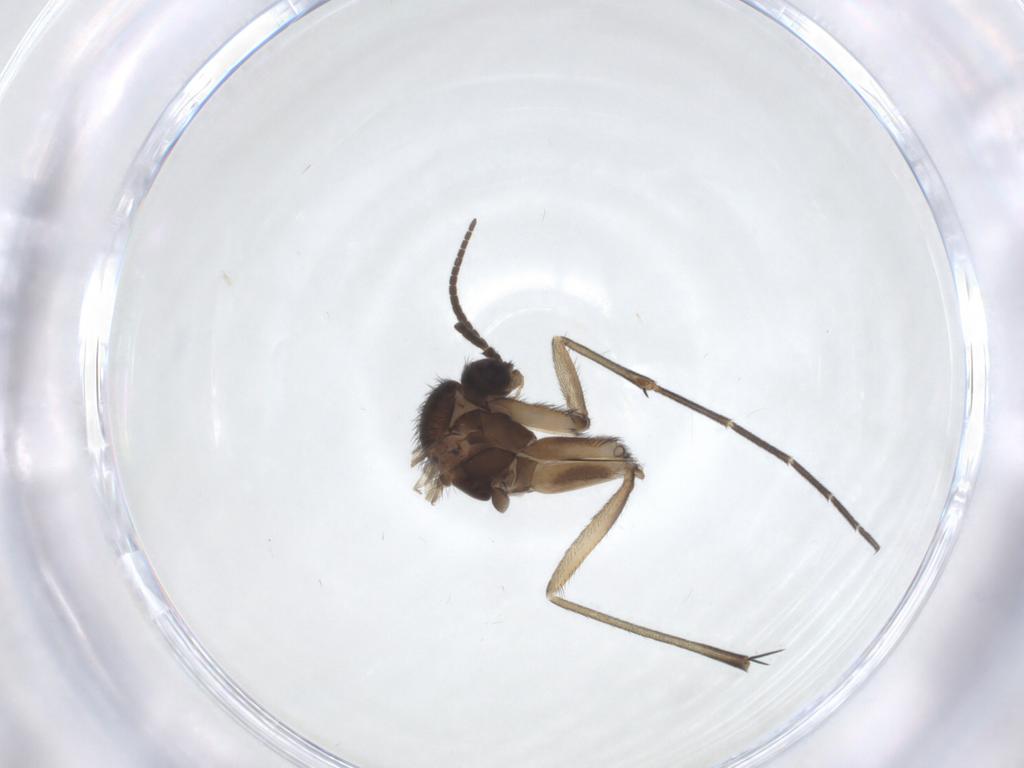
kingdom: Animalia
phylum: Arthropoda
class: Insecta
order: Diptera
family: Keroplatidae
